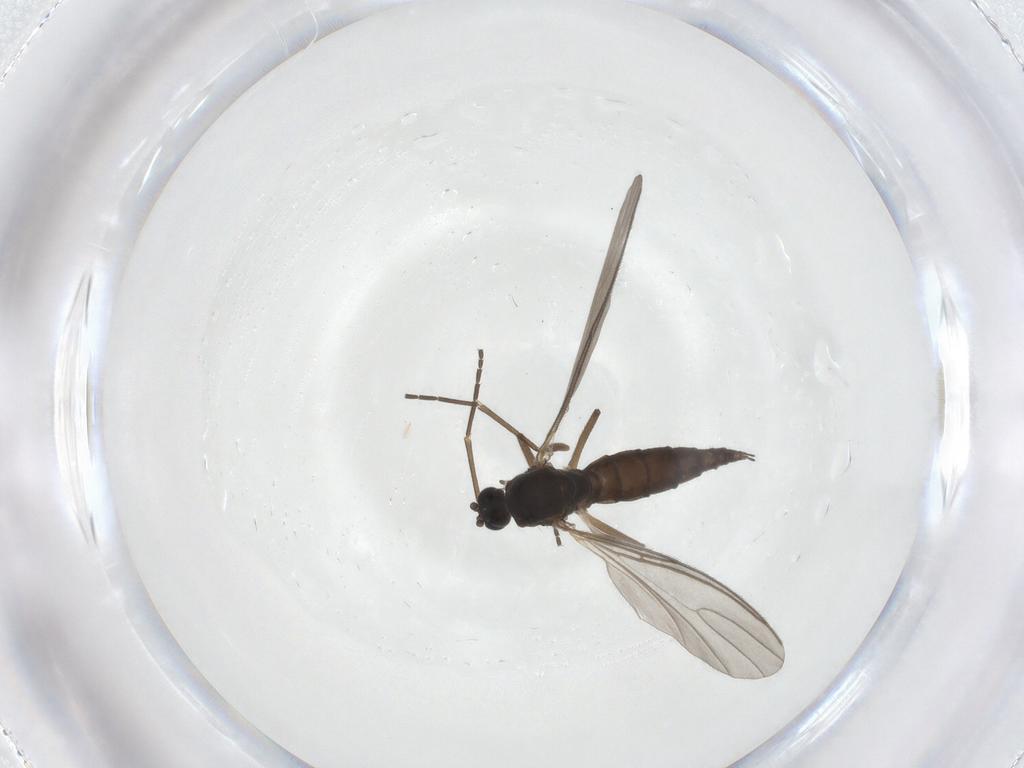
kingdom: Animalia
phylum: Arthropoda
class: Insecta
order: Diptera
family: Sciaridae
